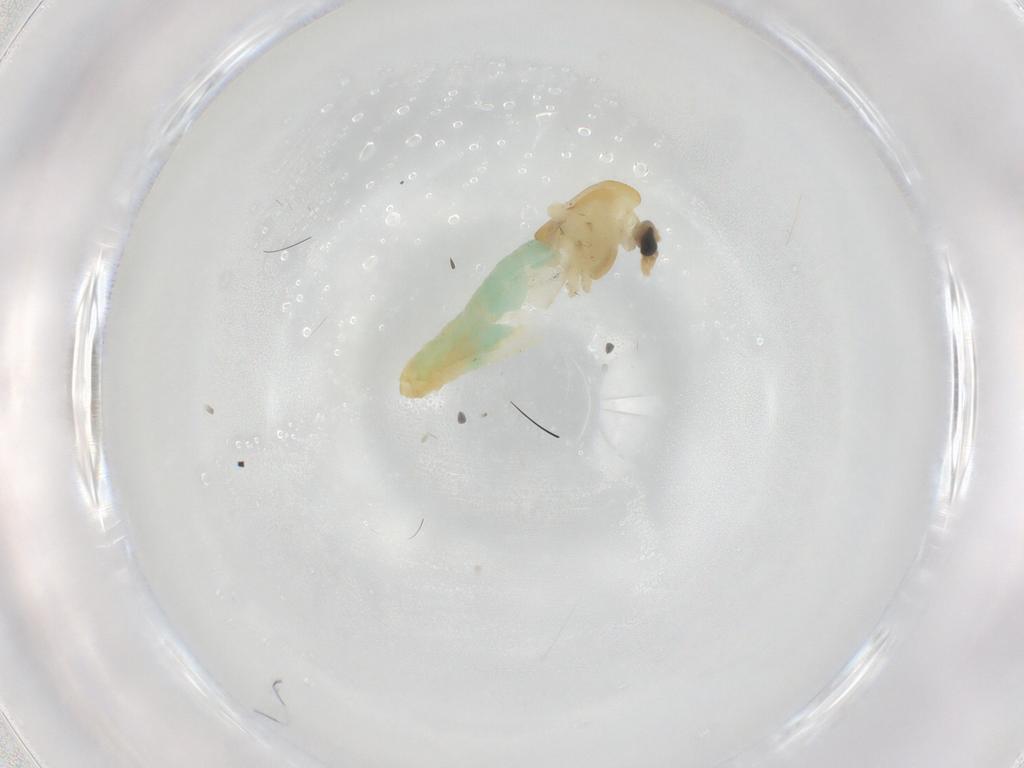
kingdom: Animalia
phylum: Arthropoda
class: Insecta
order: Diptera
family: Chironomidae
